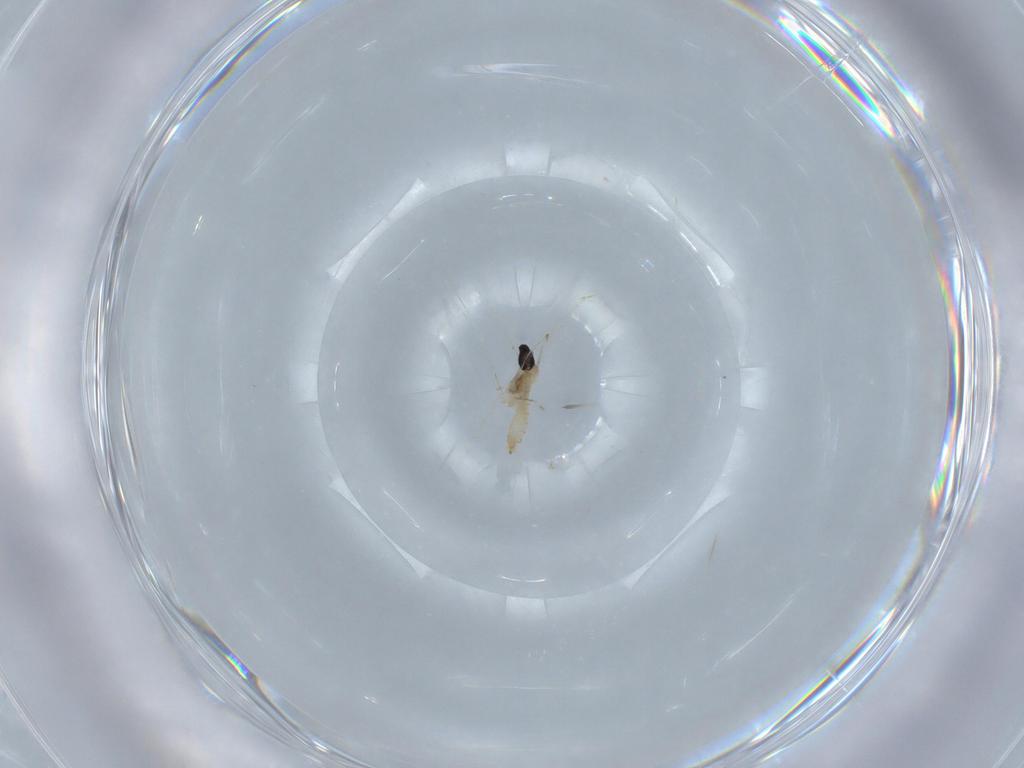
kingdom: Animalia
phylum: Arthropoda
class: Insecta
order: Diptera
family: Cecidomyiidae
